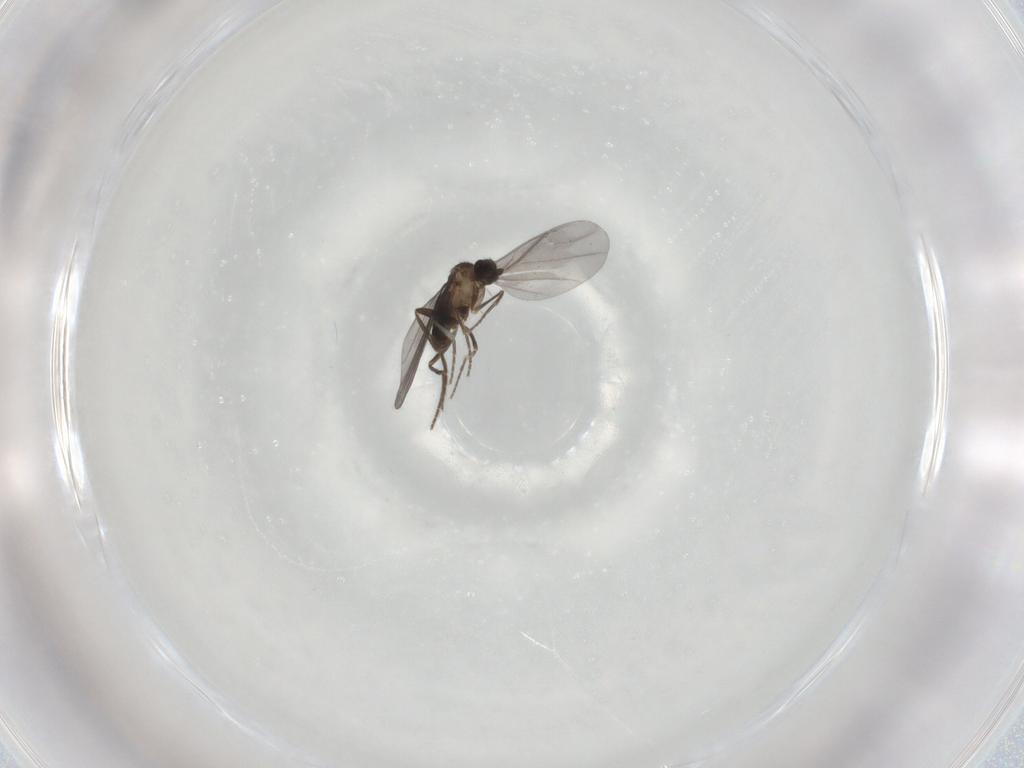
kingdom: Animalia
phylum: Arthropoda
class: Insecta
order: Diptera
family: Phoridae
